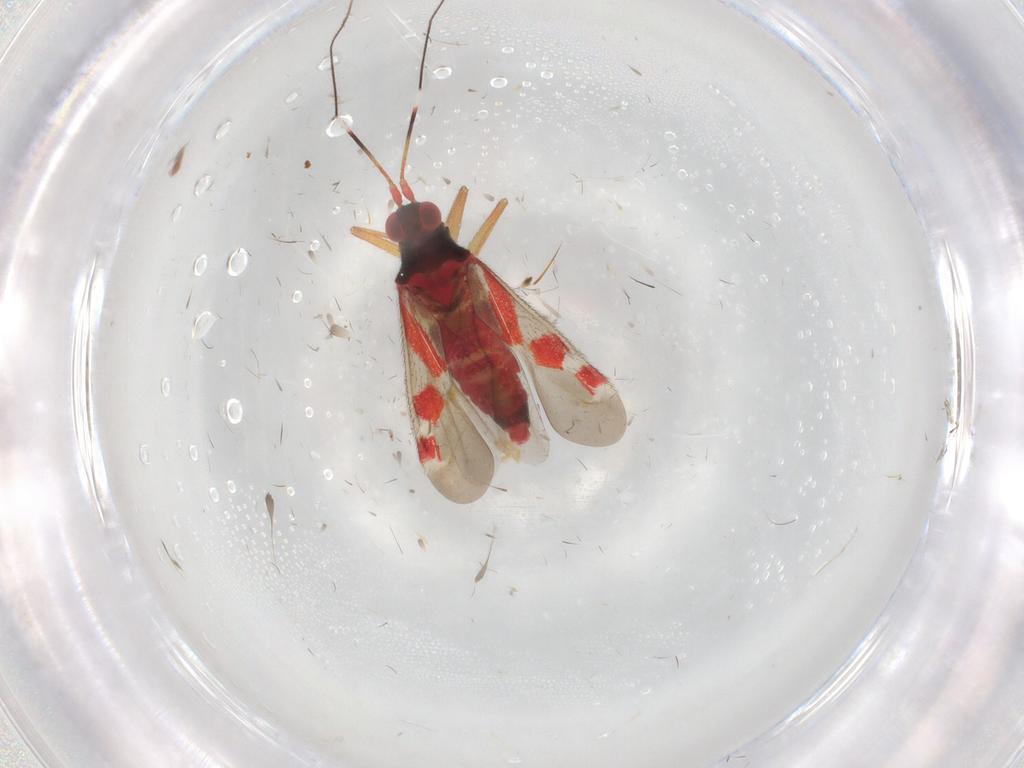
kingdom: Animalia
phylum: Arthropoda
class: Insecta
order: Hemiptera
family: Miridae
